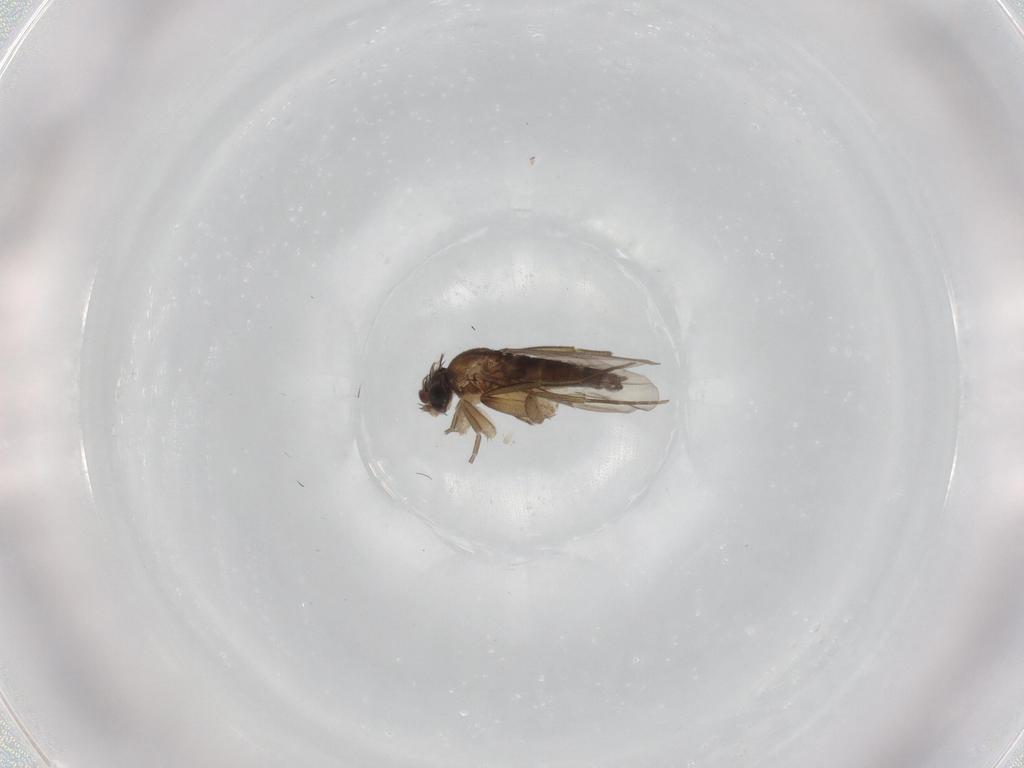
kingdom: Animalia
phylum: Arthropoda
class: Insecta
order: Diptera
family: Phoridae
